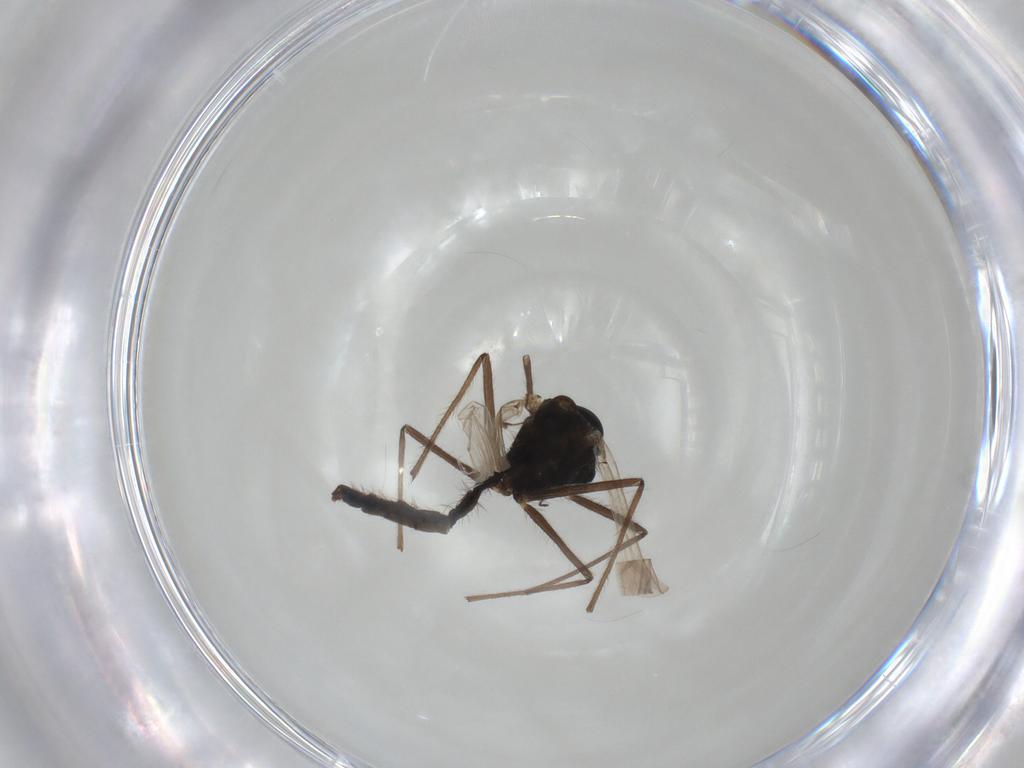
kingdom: Animalia
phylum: Arthropoda
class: Insecta
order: Diptera
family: Chironomidae
